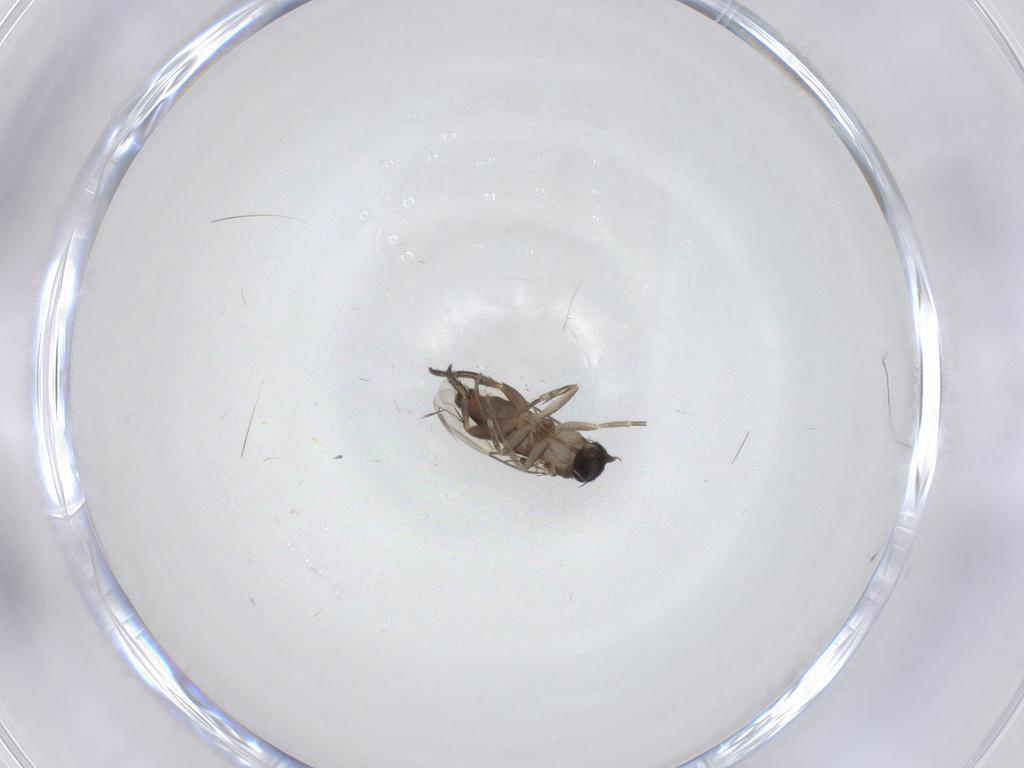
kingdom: Animalia
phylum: Arthropoda
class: Insecta
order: Diptera
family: Phoridae
